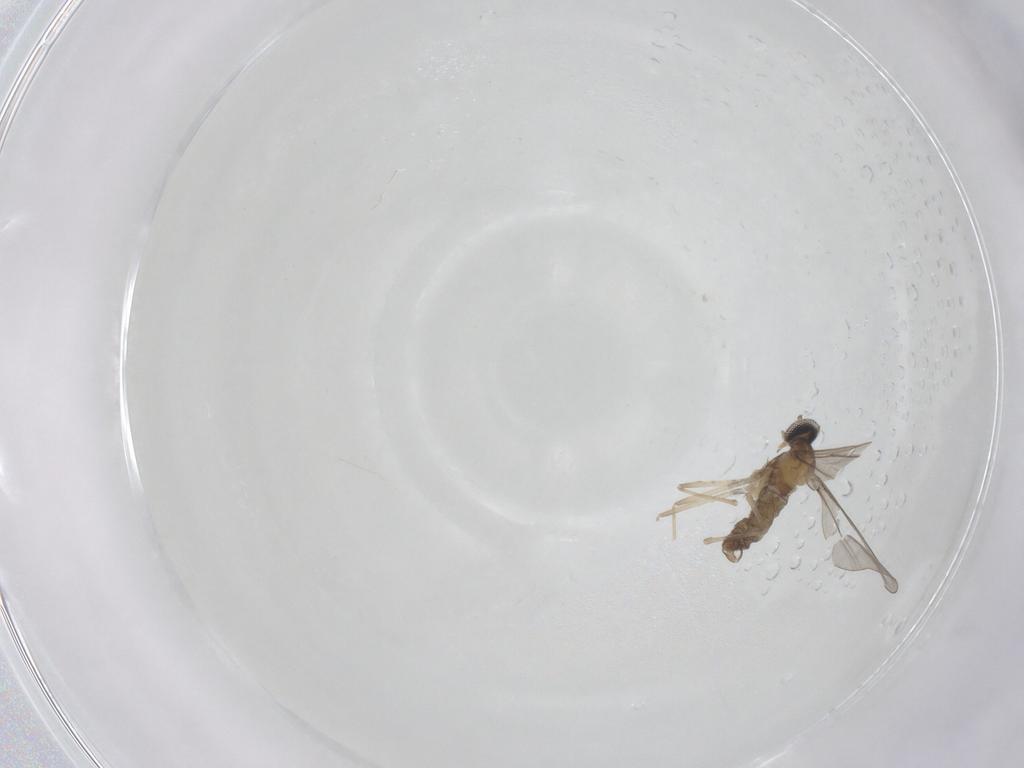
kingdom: Animalia
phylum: Arthropoda
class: Insecta
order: Diptera
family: Cecidomyiidae
